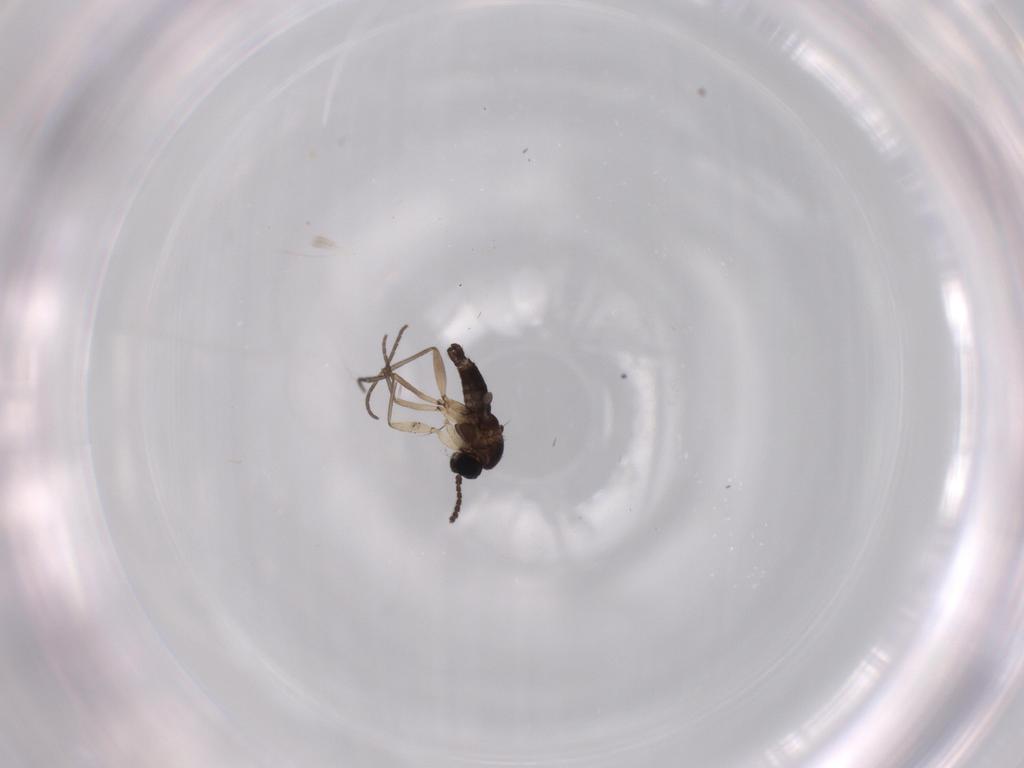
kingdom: Animalia
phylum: Arthropoda
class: Insecta
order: Diptera
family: Sciaridae
